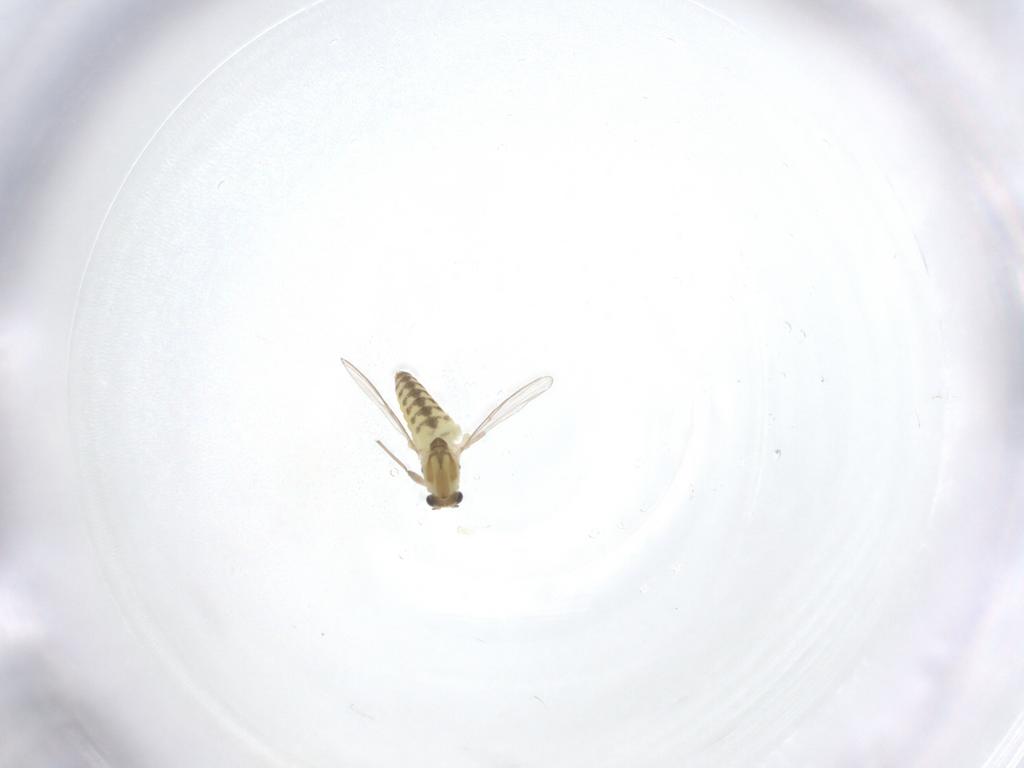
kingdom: Animalia
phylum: Arthropoda
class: Insecta
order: Diptera
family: Chironomidae
